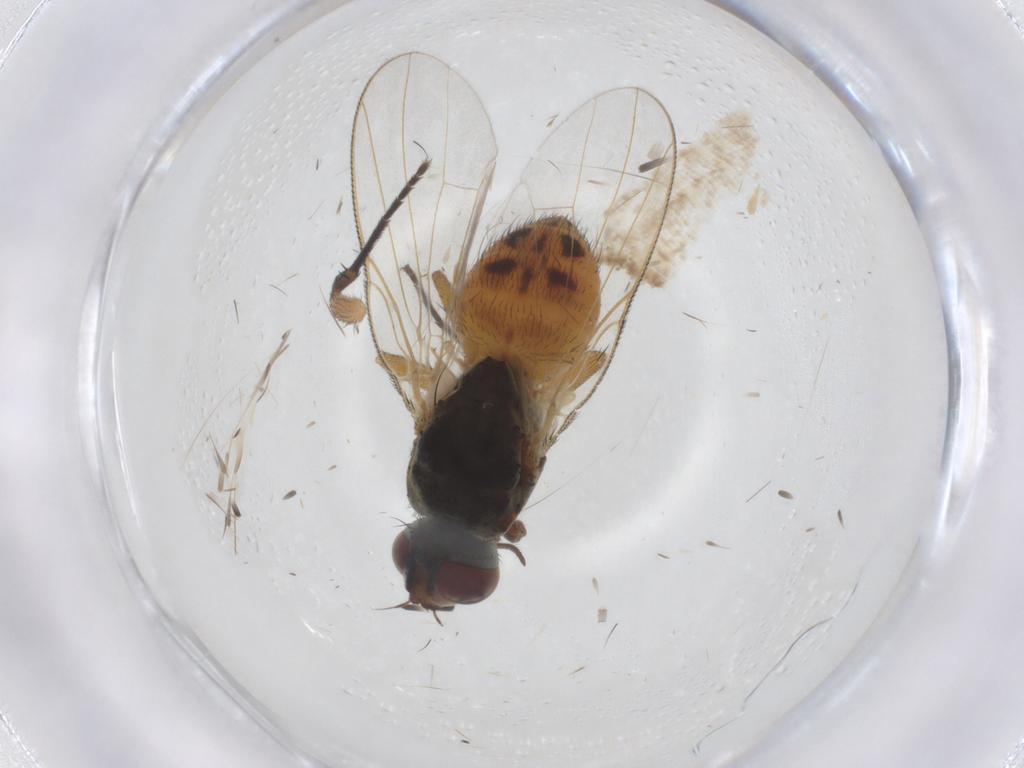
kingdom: Animalia
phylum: Arthropoda
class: Insecta
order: Diptera
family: Muscidae
